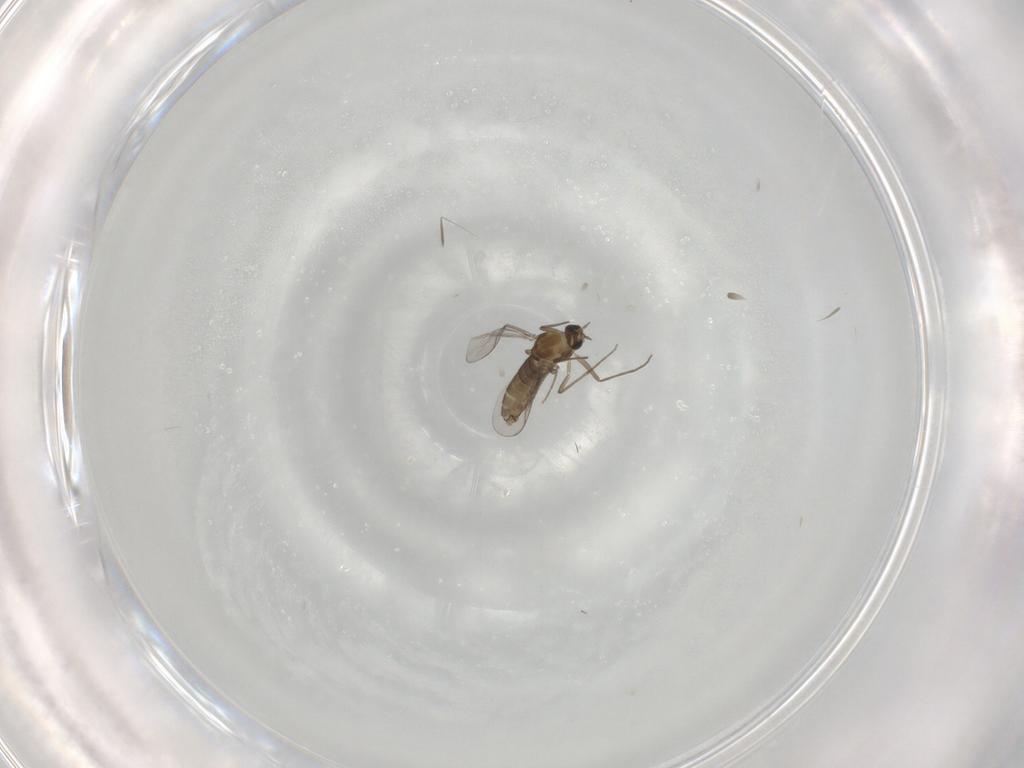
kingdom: Animalia
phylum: Arthropoda
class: Insecta
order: Diptera
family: Chironomidae
